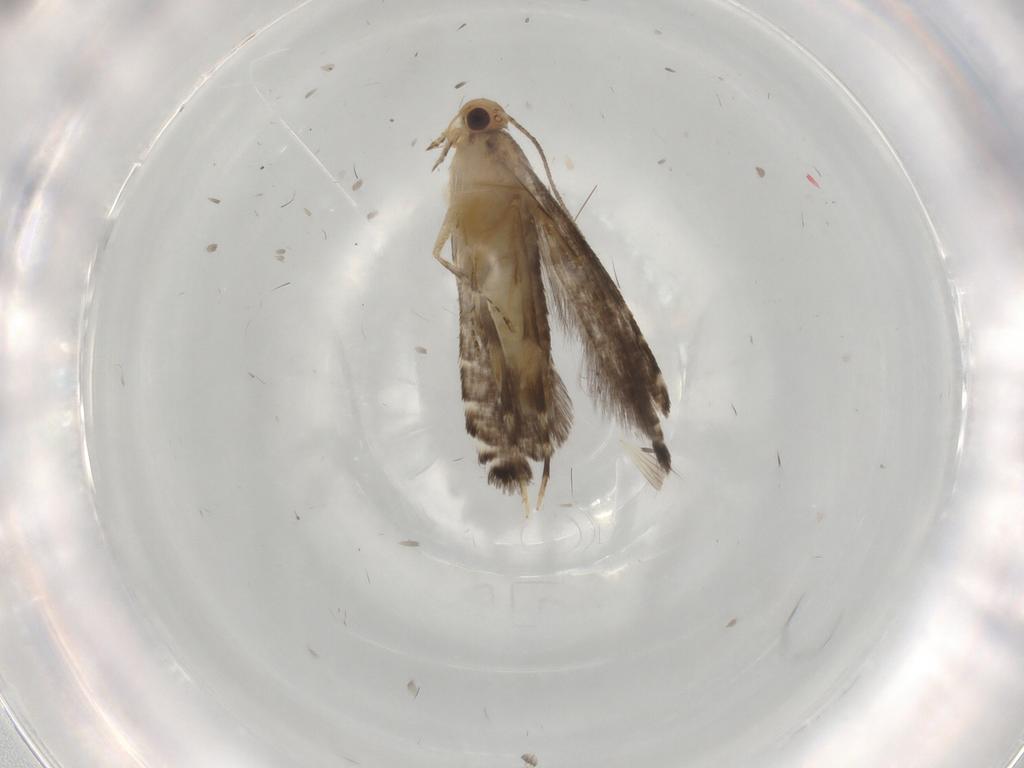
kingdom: Animalia
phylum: Arthropoda
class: Insecta
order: Lepidoptera
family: Glyphipterigidae
